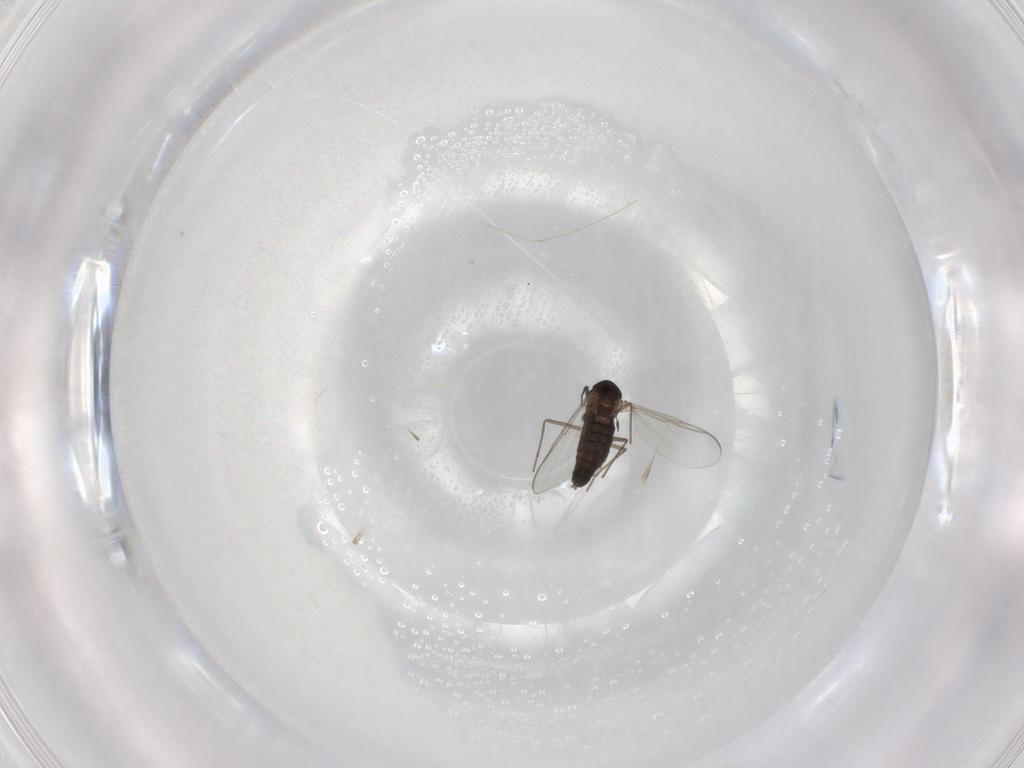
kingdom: Animalia
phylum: Arthropoda
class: Insecta
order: Diptera
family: Chironomidae
